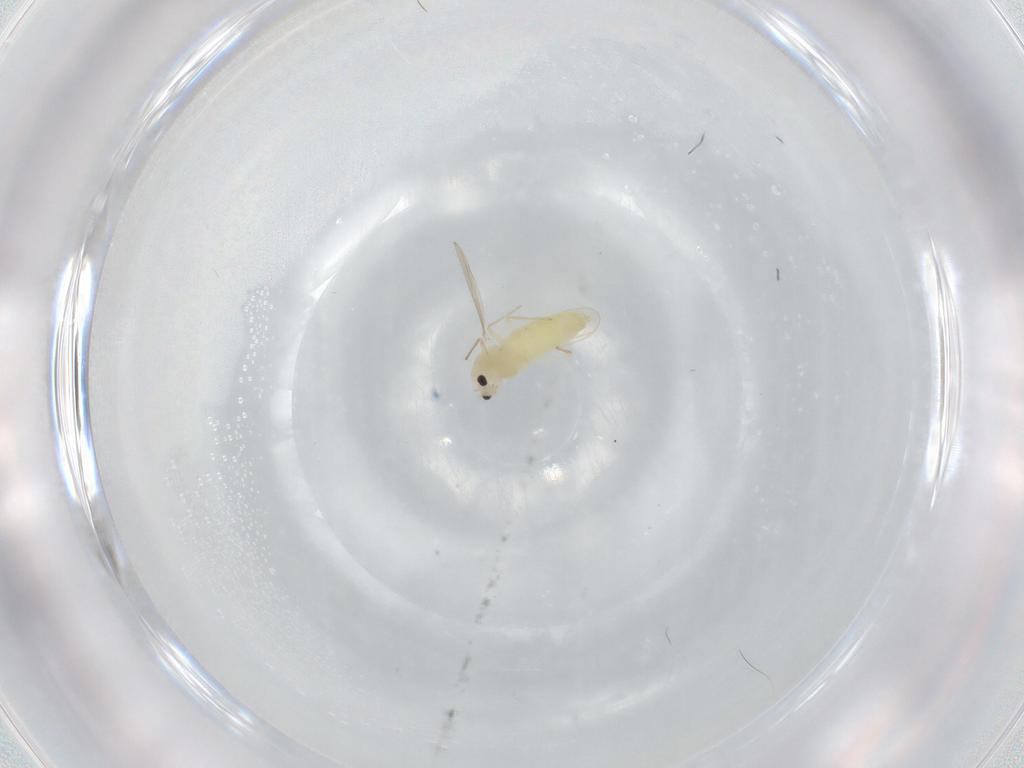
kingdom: Animalia
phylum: Arthropoda
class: Insecta
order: Diptera
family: Chironomidae
